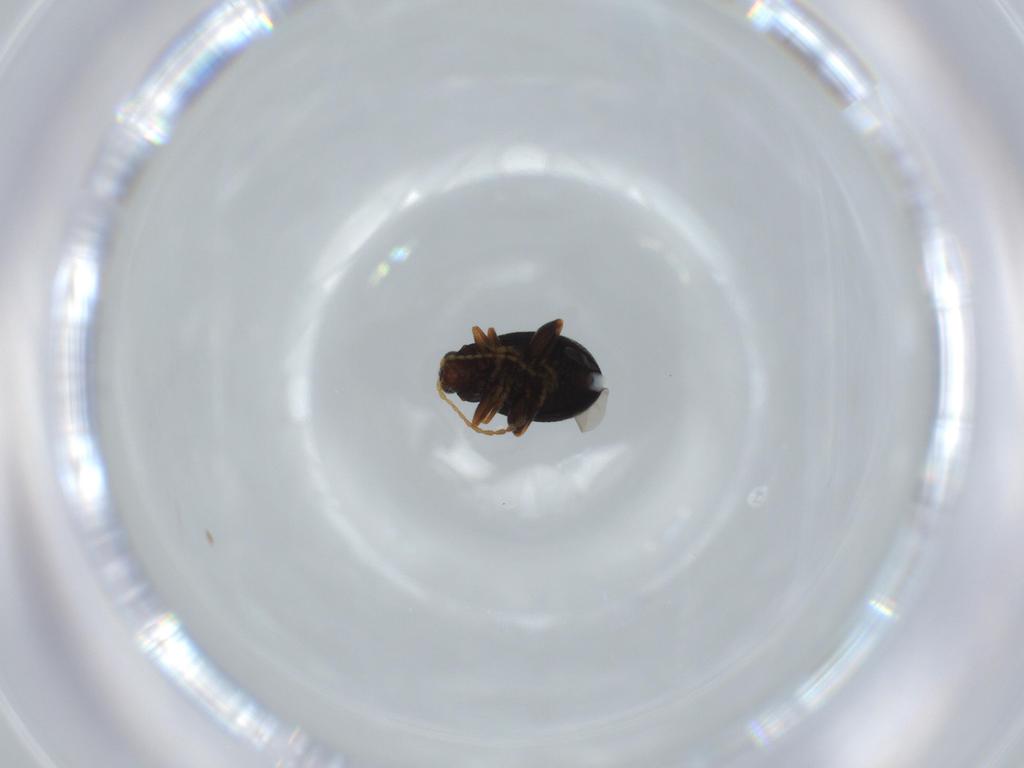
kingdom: Animalia
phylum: Arthropoda
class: Insecta
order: Coleoptera
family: Chrysomelidae
